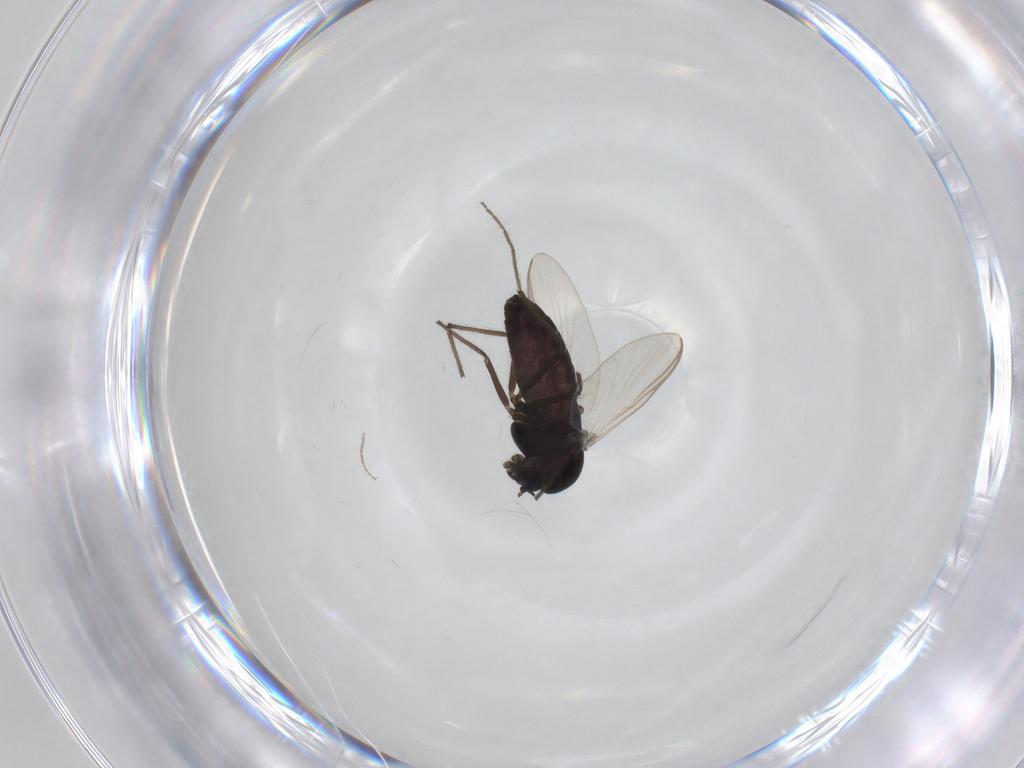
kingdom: Animalia
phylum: Arthropoda
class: Insecta
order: Diptera
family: Chironomidae
